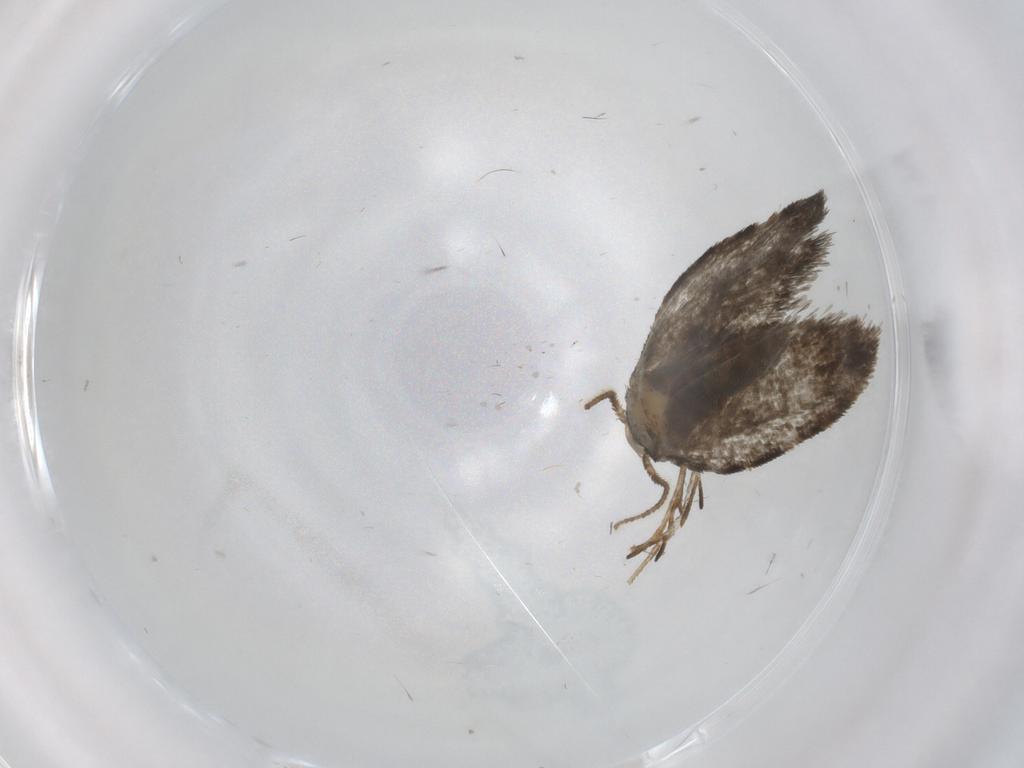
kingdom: Animalia
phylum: Arthropoda
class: Insecta
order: Lepidoptera
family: Psychidae
